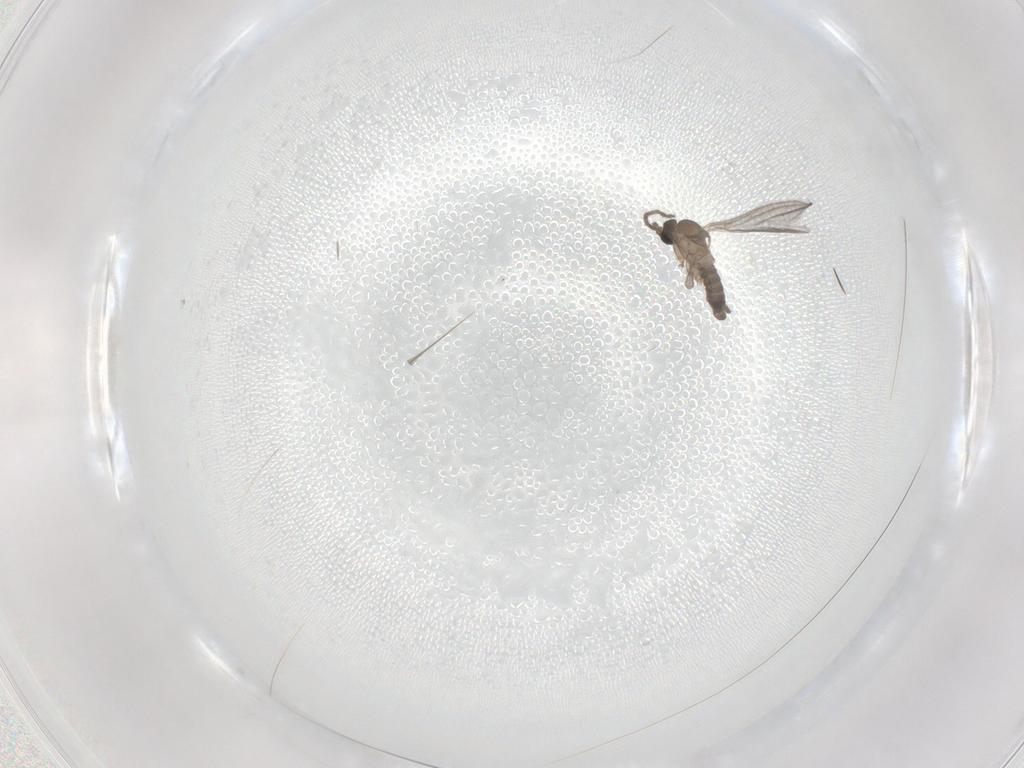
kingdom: Animalia
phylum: Arthropoda
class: Insecta
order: Diptera
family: Sciaridae
